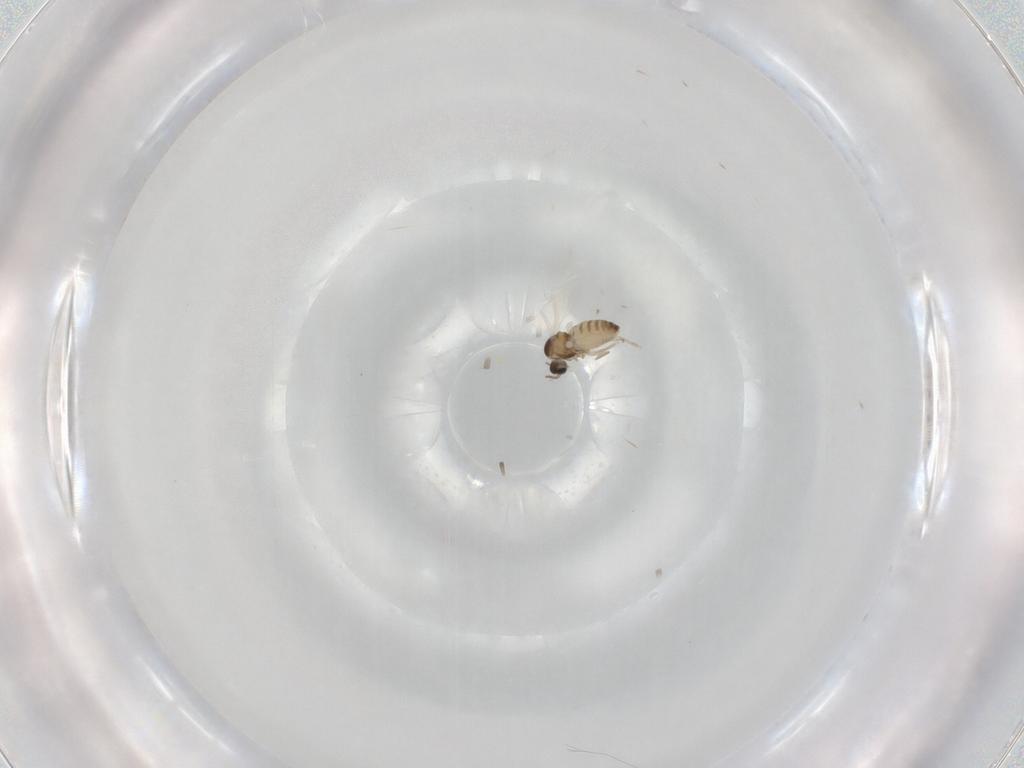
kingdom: Animalia
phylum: Arthropoda
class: Insecta
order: Diptera
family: Cecidomyiidae
